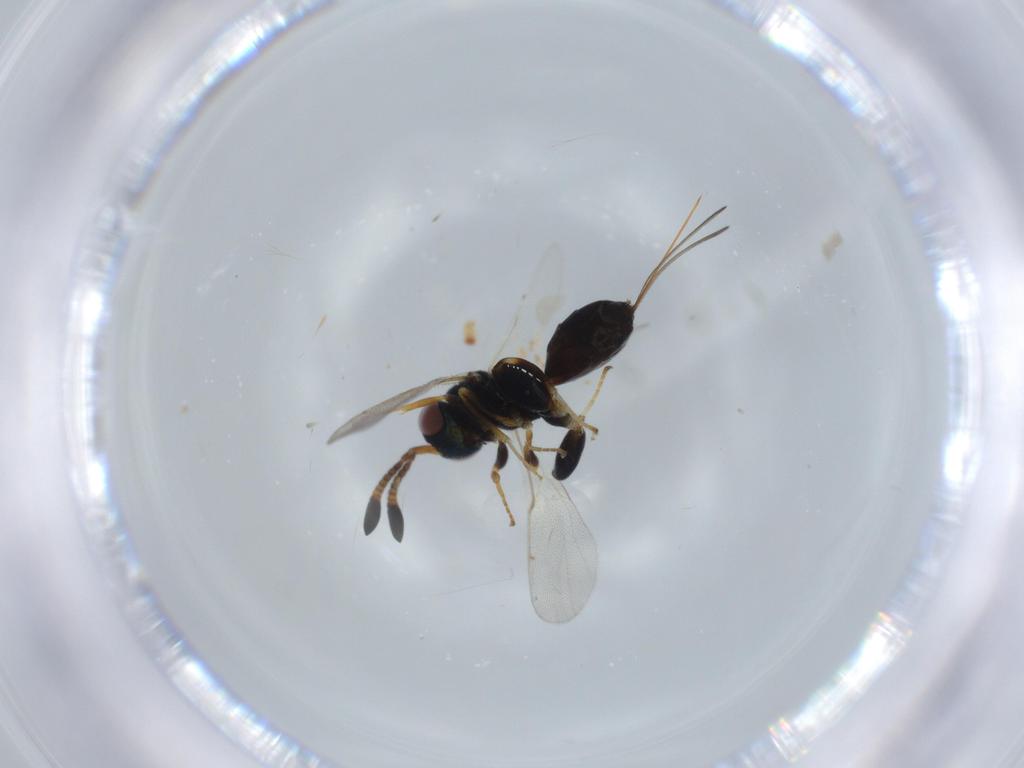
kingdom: Animalia
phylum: Arthropoda
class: Insecta
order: Hymenoptera
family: Torymidae
